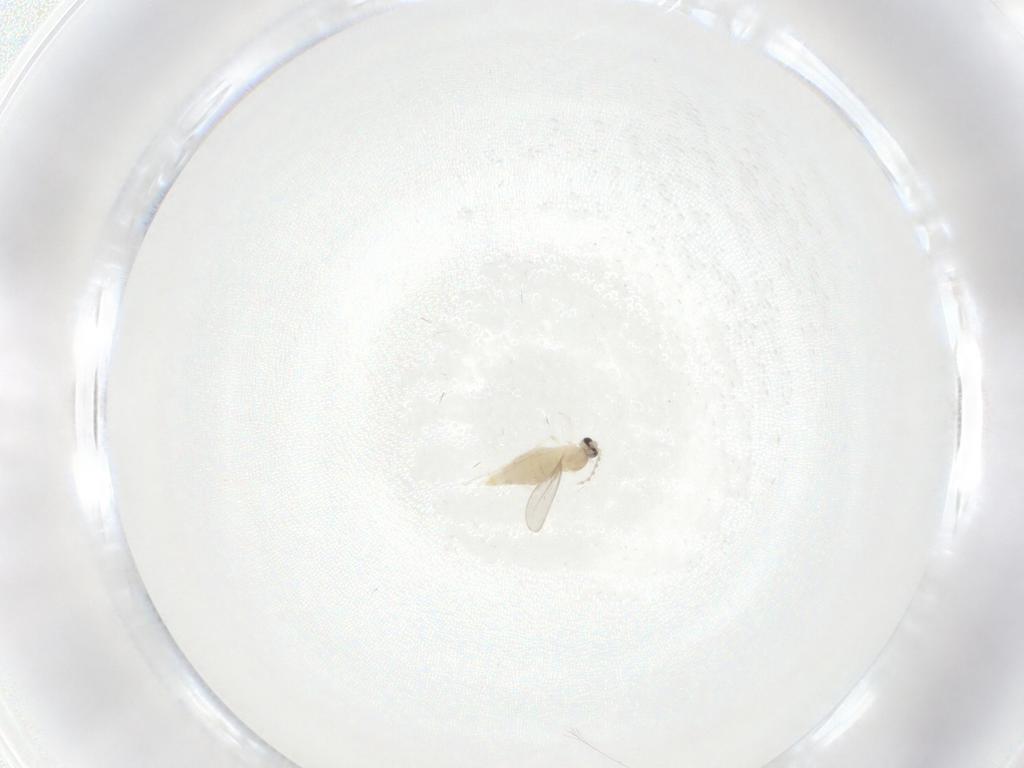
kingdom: Animalia
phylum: Arthropoda
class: Insecta
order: Diptera
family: Cecidomyiidae
